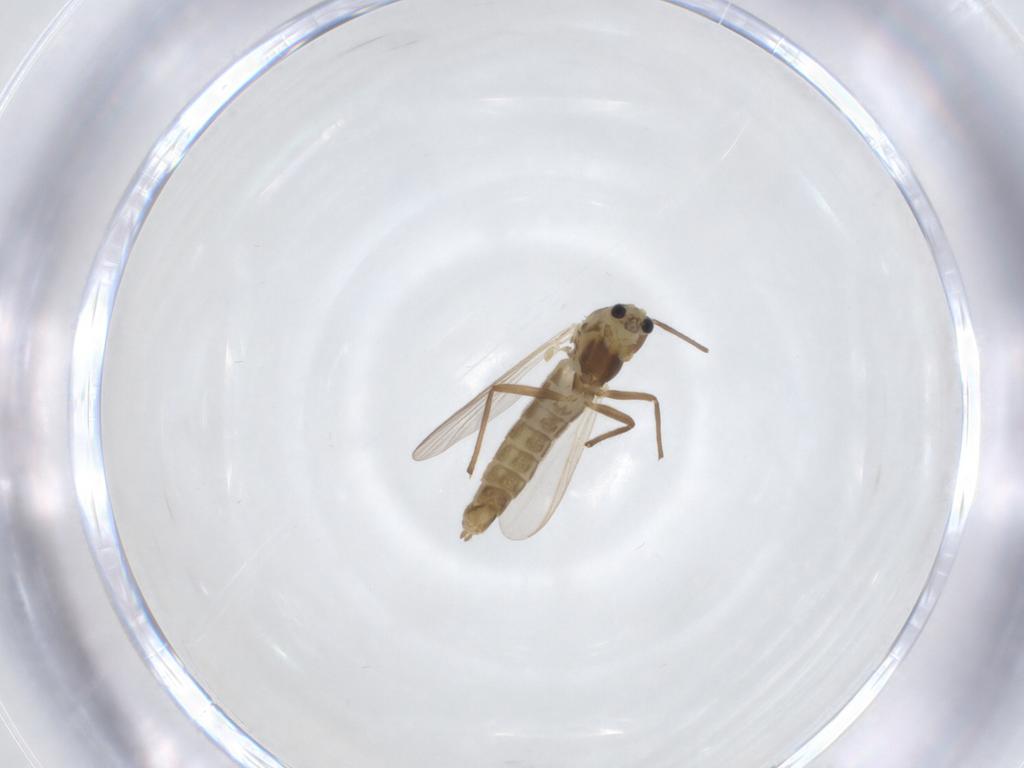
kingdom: Animalia
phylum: Arthropoda
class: Insecta
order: Diptera
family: Chironomidae
